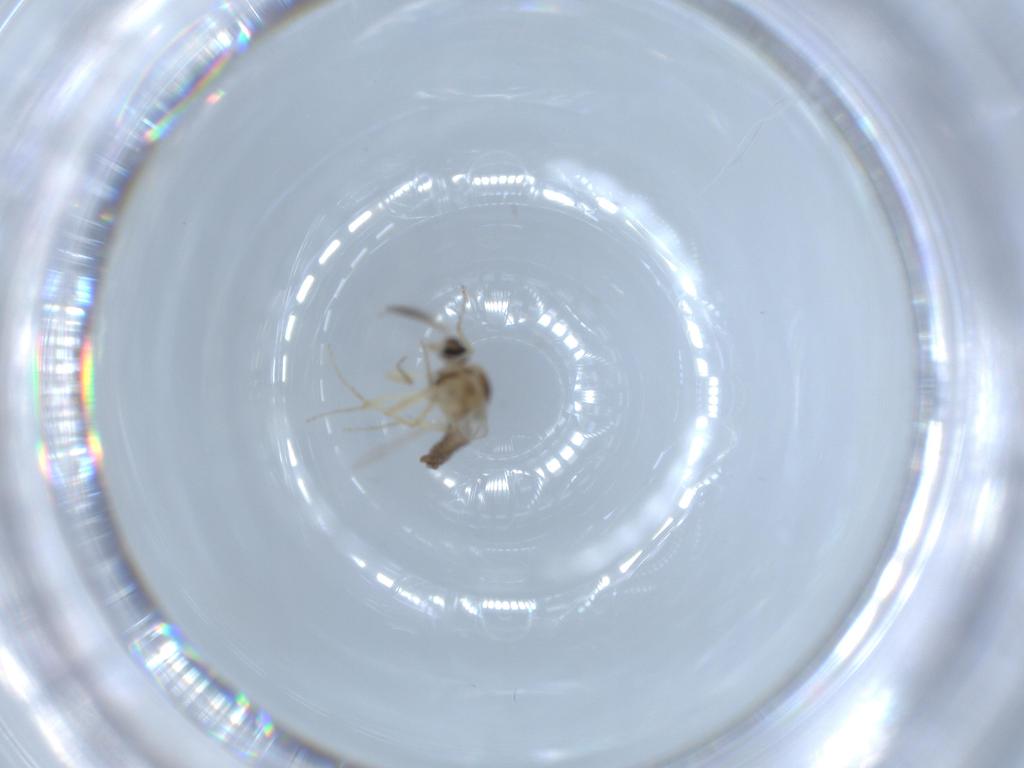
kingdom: Animalia
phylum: Arthropoda
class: Insecta
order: Diptera
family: Ceratopogonidae
